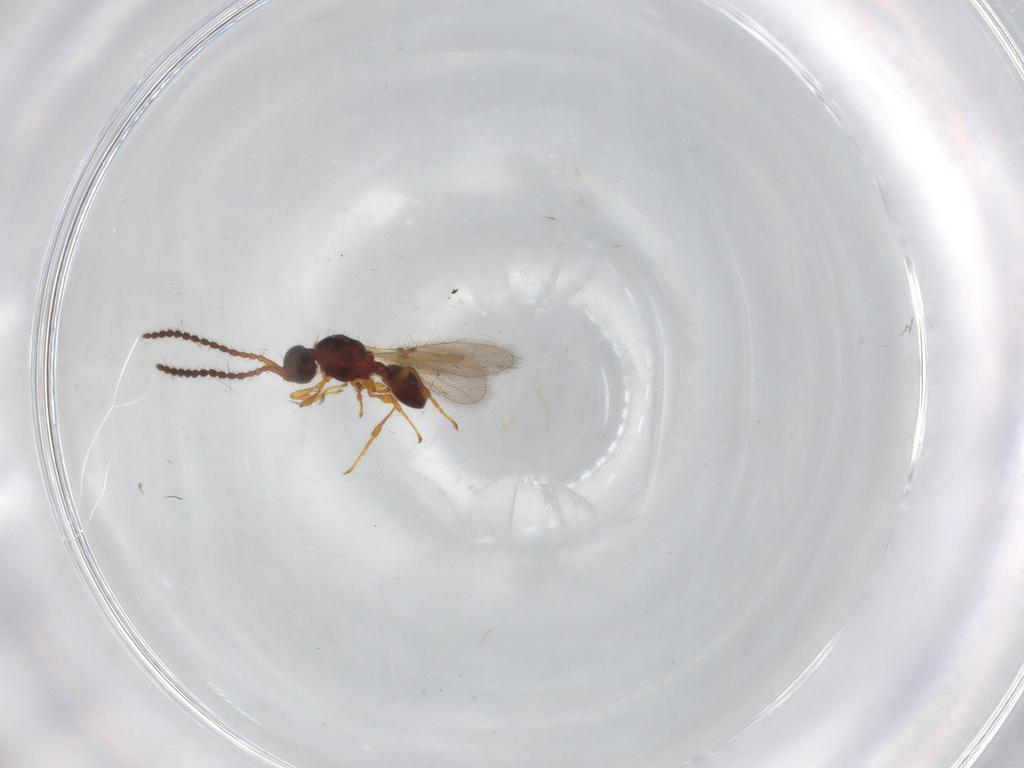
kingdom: Animalia
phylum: Arthropoda
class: Insecta
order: Hymenoptera
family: Diapriidae
